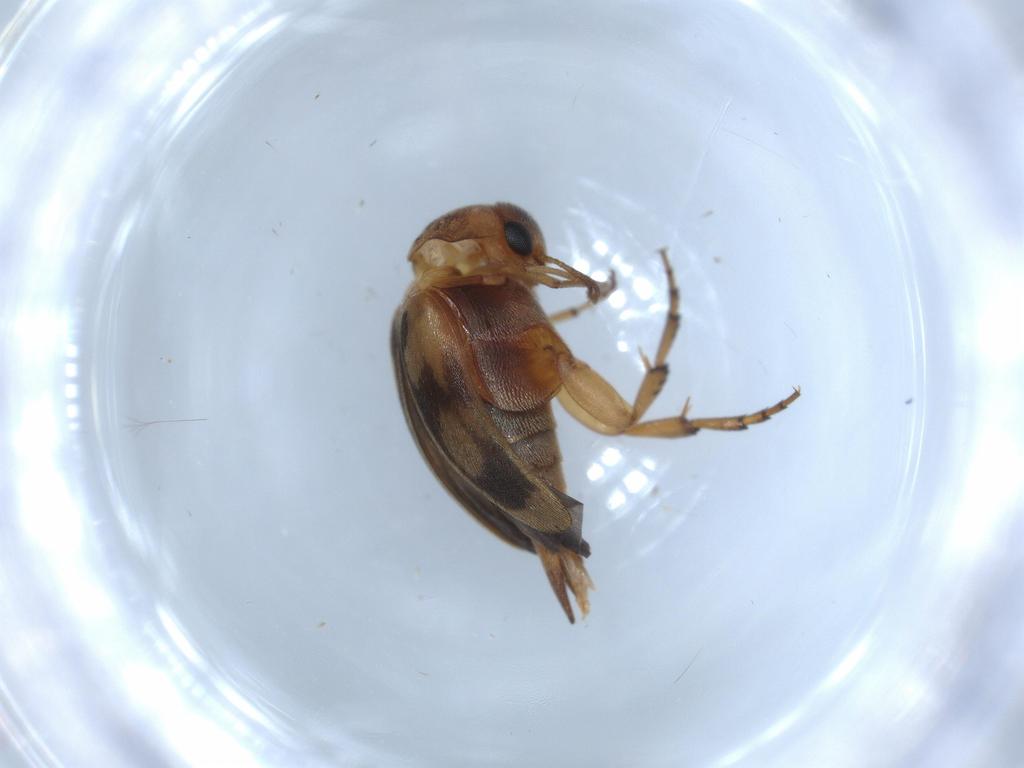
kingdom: Animalia
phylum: Arthropoda
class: Insecta
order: Coleoptera
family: Mordellidae
